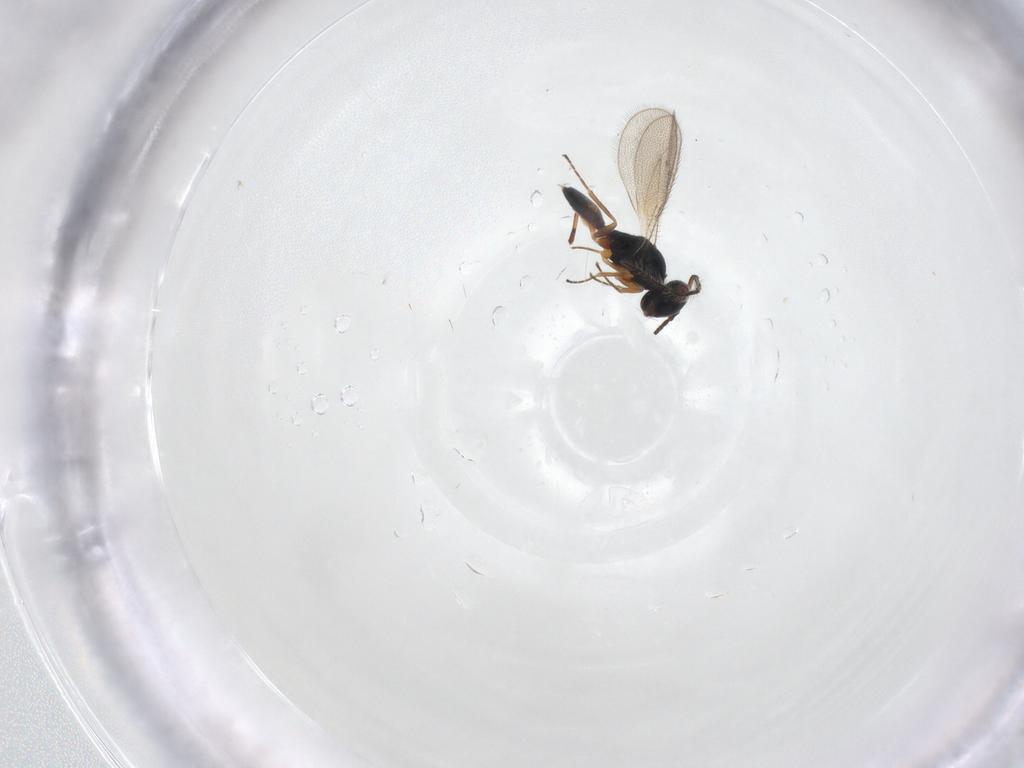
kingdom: Animalia
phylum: Arthropoda
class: Insecta
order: Hymenoptera
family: Pteromalidae
